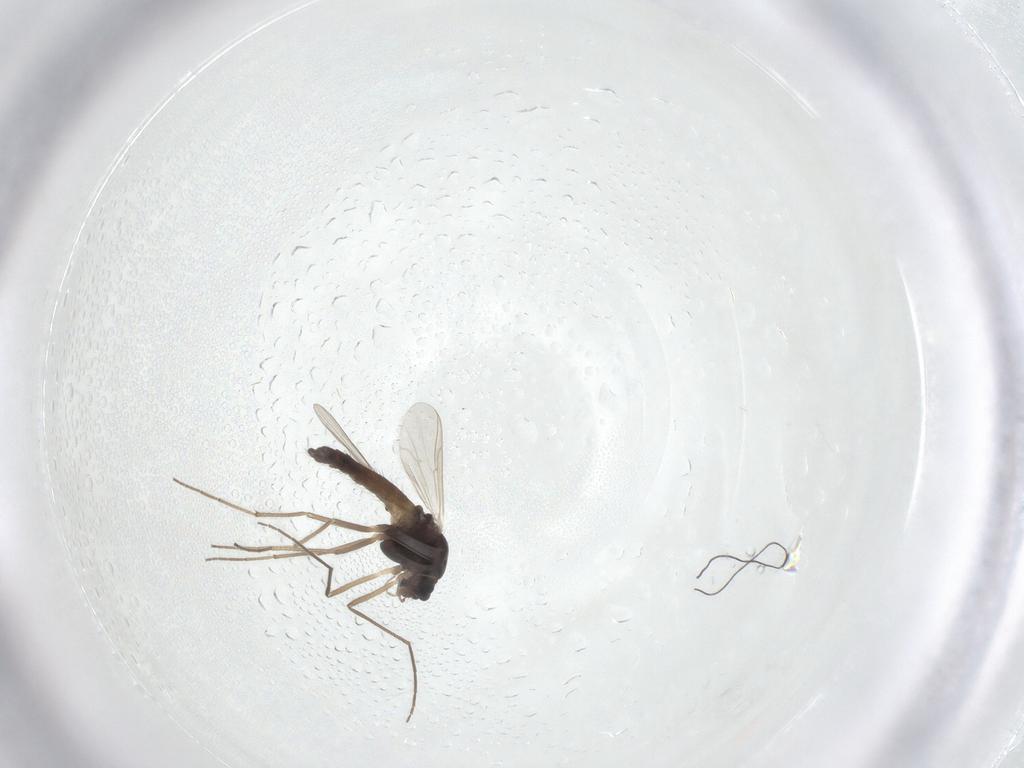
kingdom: Animalia
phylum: Arthropoda
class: Insecta
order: Diptera
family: Chironomidae
